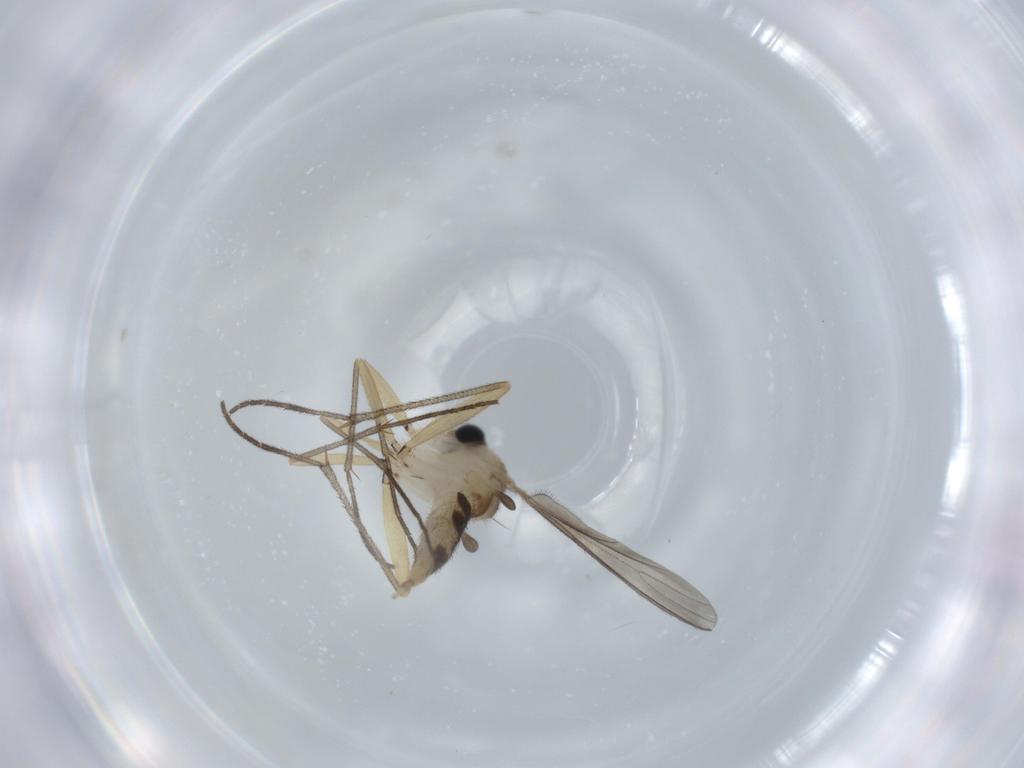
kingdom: Animalia
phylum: Arthropoda
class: Insecta
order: Diptera
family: Sciaridae
